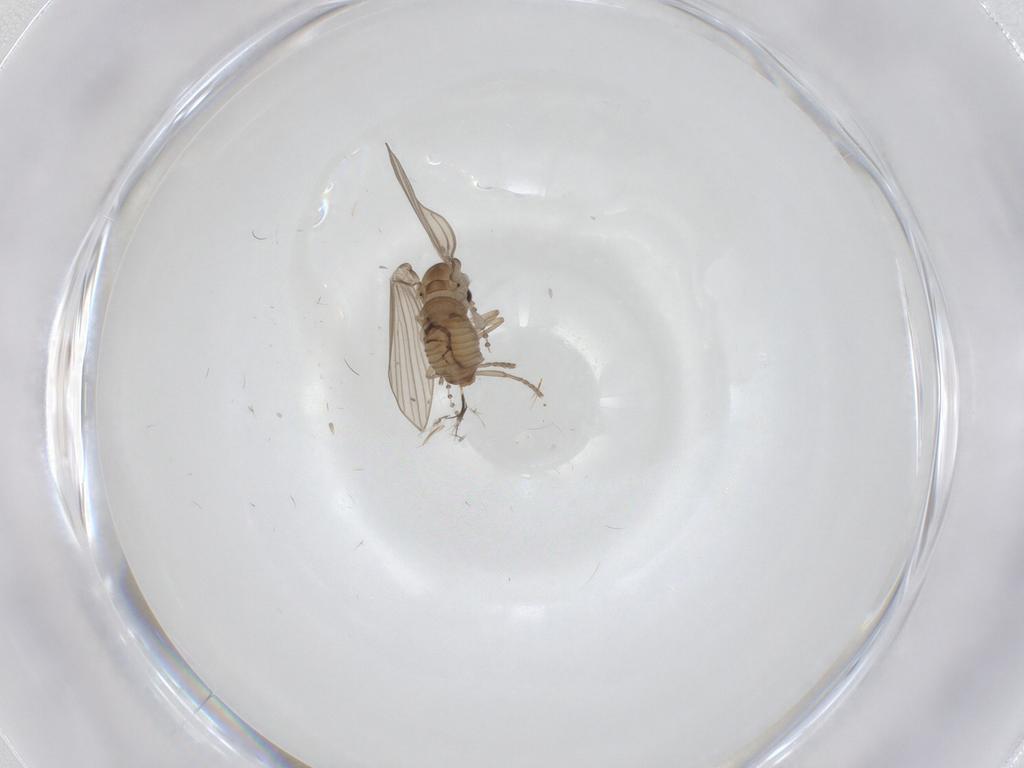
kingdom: Animalia
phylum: Arthropoda
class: Insecta
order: Diptera
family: Psychodidae
